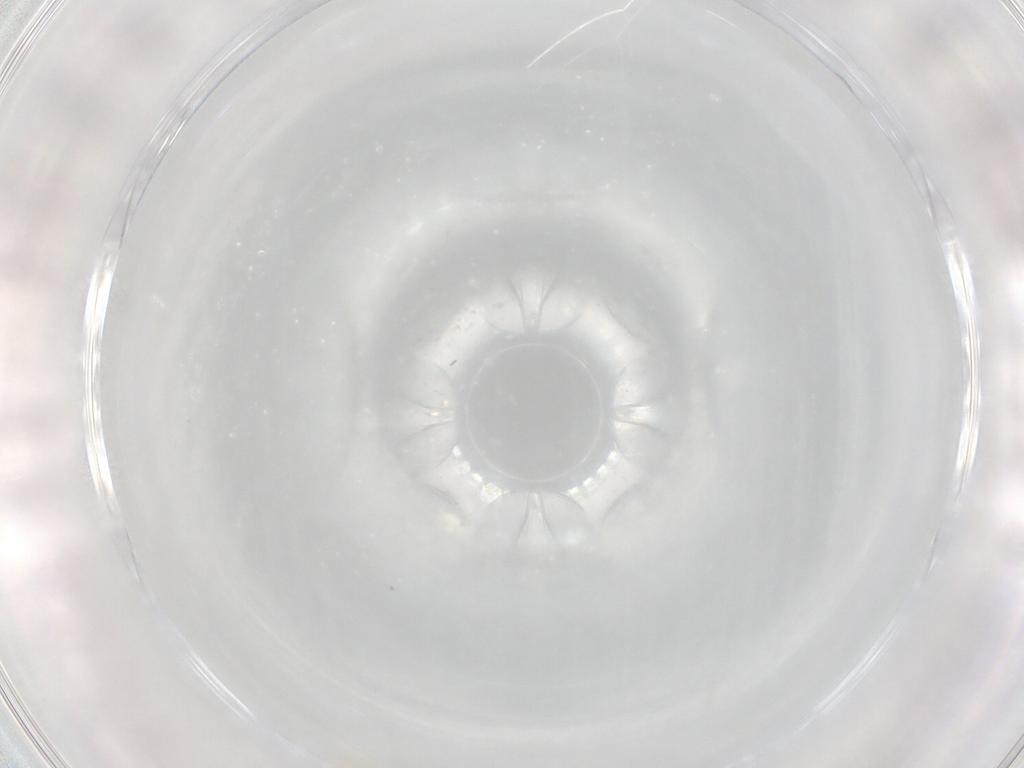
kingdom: Animalia
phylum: Arthropoda
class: Arachnida
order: Mesostigmata
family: Phytoseiidae
